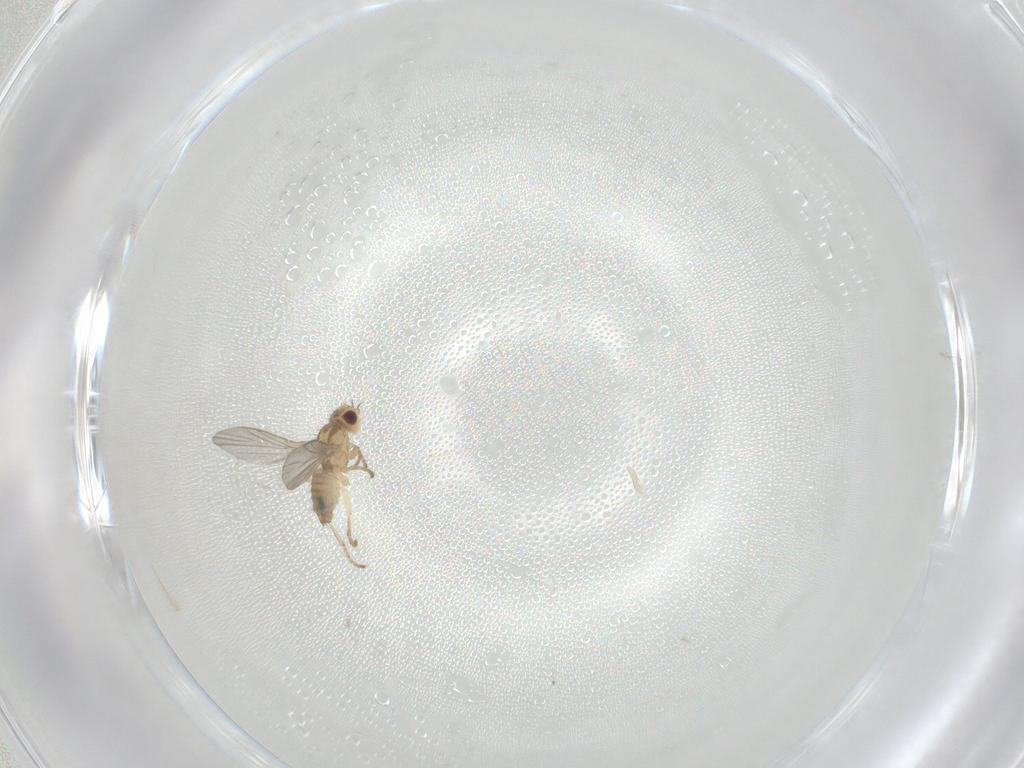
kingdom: Animalia
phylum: Arthropoda
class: Insecta
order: Diptera
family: Agromyzidae
